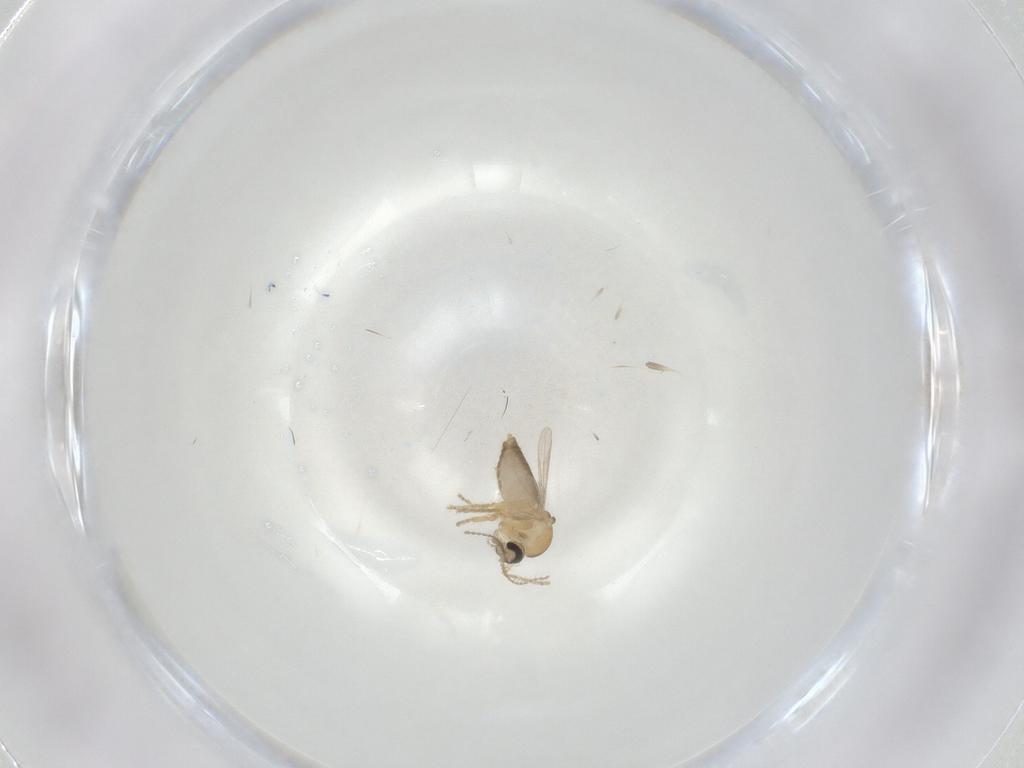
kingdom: Animalia
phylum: Arthropoda
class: Insecta
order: Diptera
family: Ceratopogonidae
